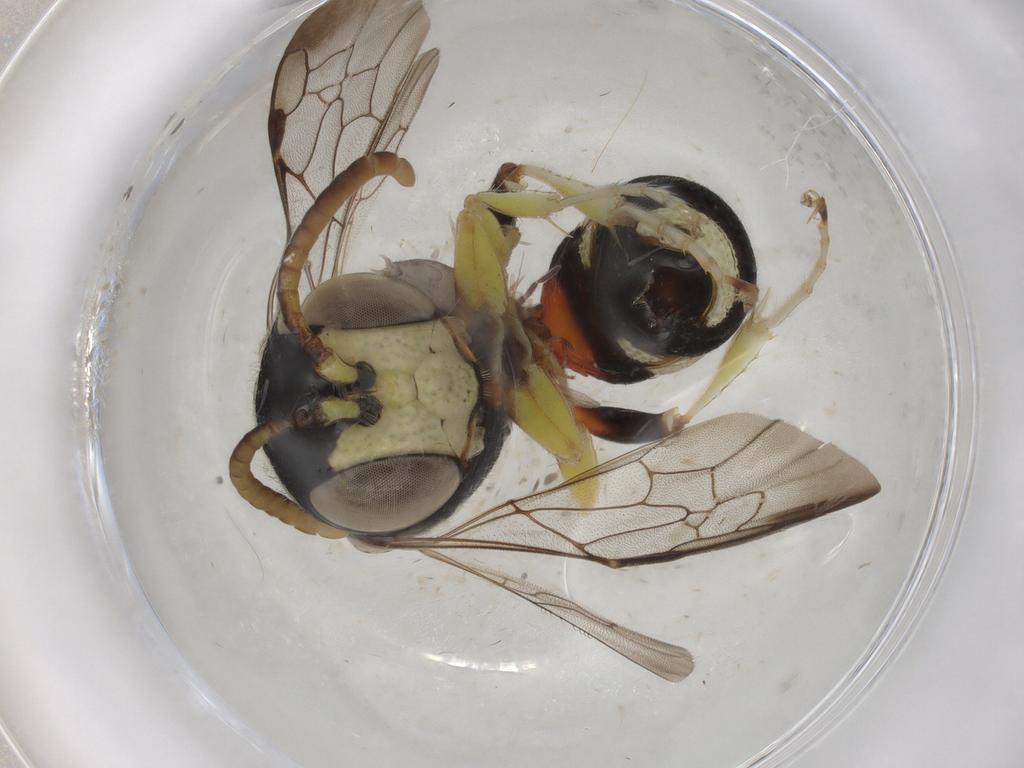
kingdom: Animalia
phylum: Arthropoda
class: Insecta
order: Hymenoptera
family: Crabronidae
